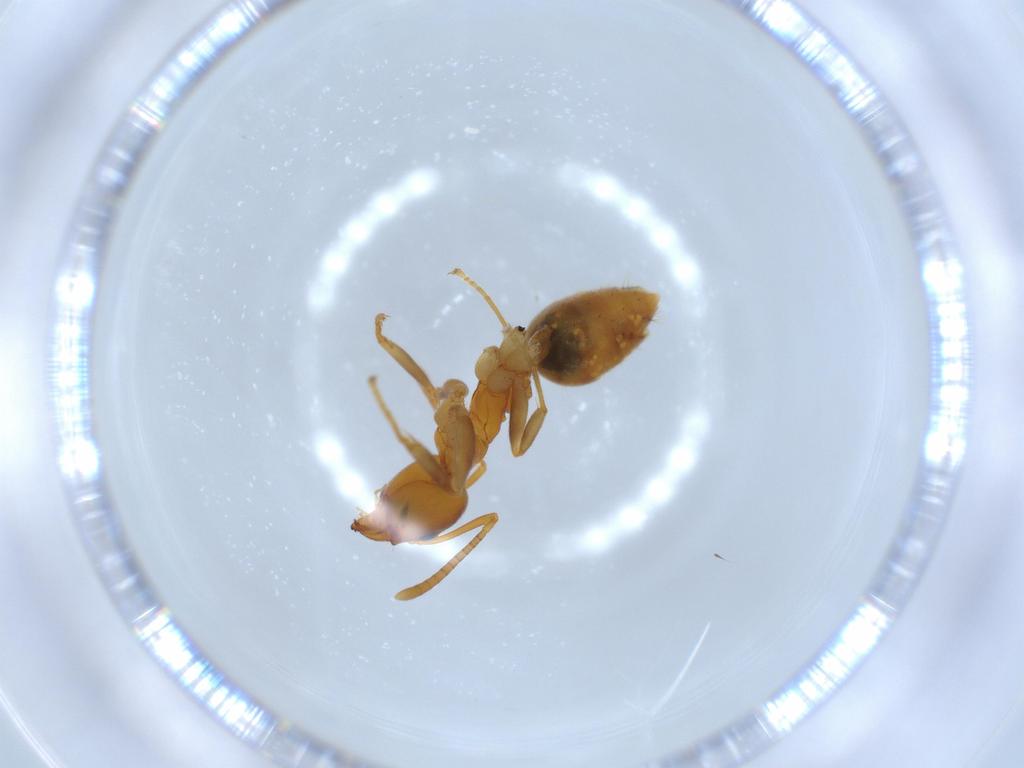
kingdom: Animalia
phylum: Arthropoda
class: Insecta
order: Hymenoptera
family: Formicidae
